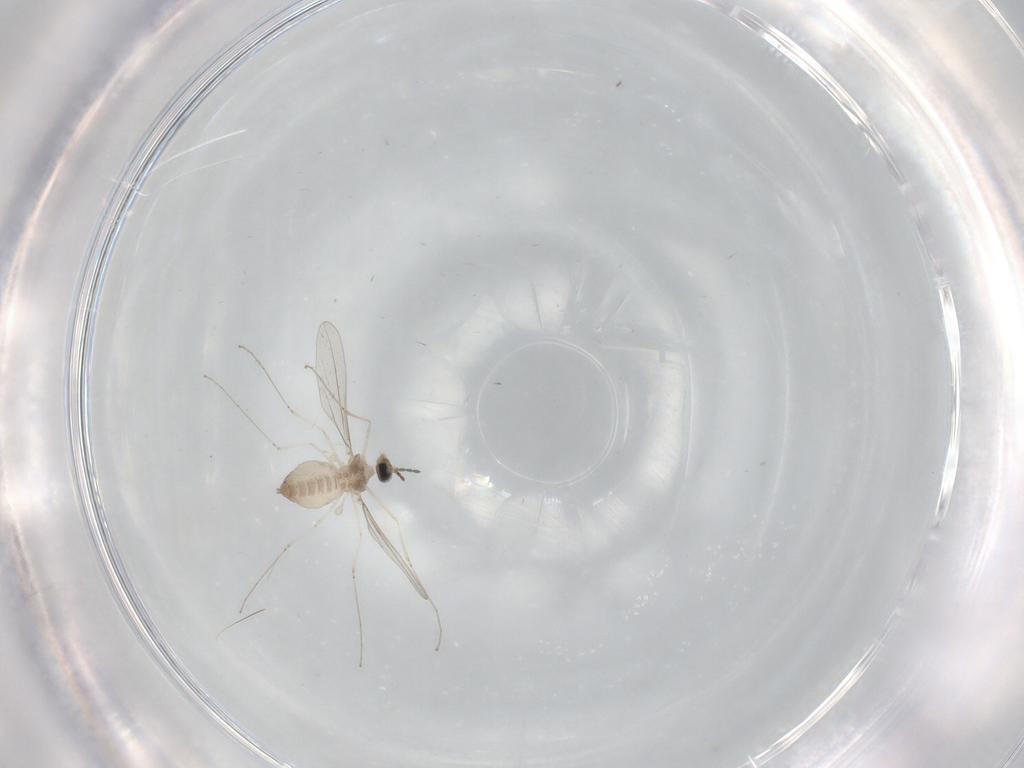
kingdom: Animalia
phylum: Arthropoda
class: Insecta
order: Diptera
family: Cecidomyiidae
